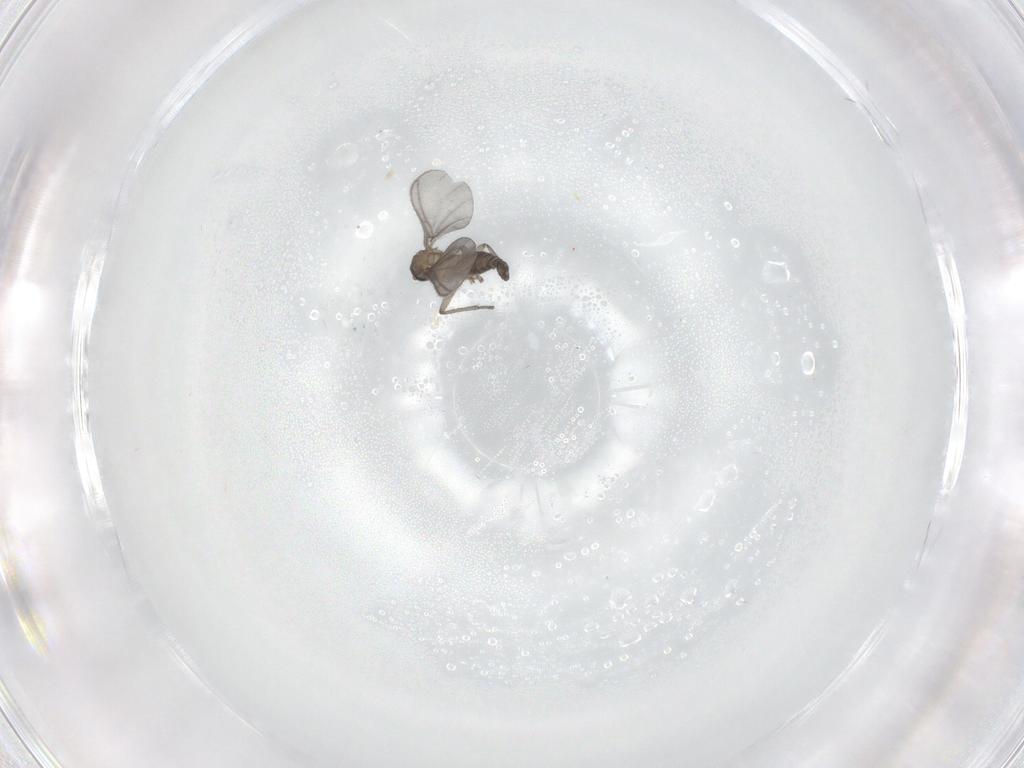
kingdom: Animalia
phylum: Arthropoda
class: Insecta
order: Diptera
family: Sciaridae
